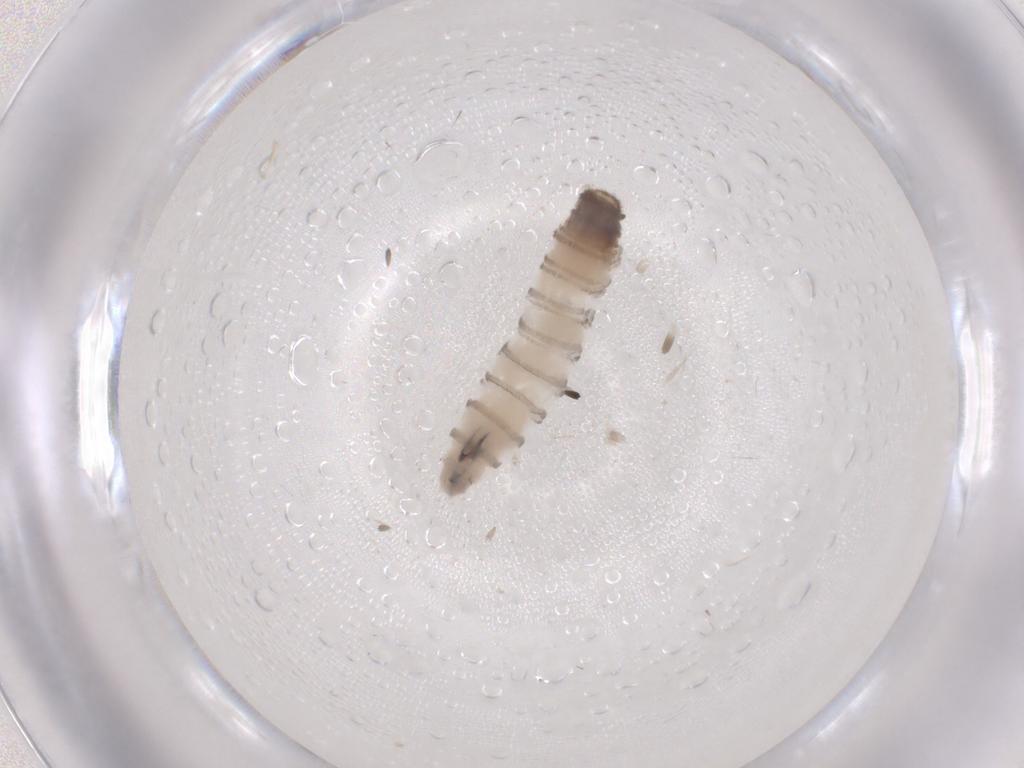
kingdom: Animalia
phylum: Arthropoda
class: Insecta
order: Diptera
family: Sarcophagidae
